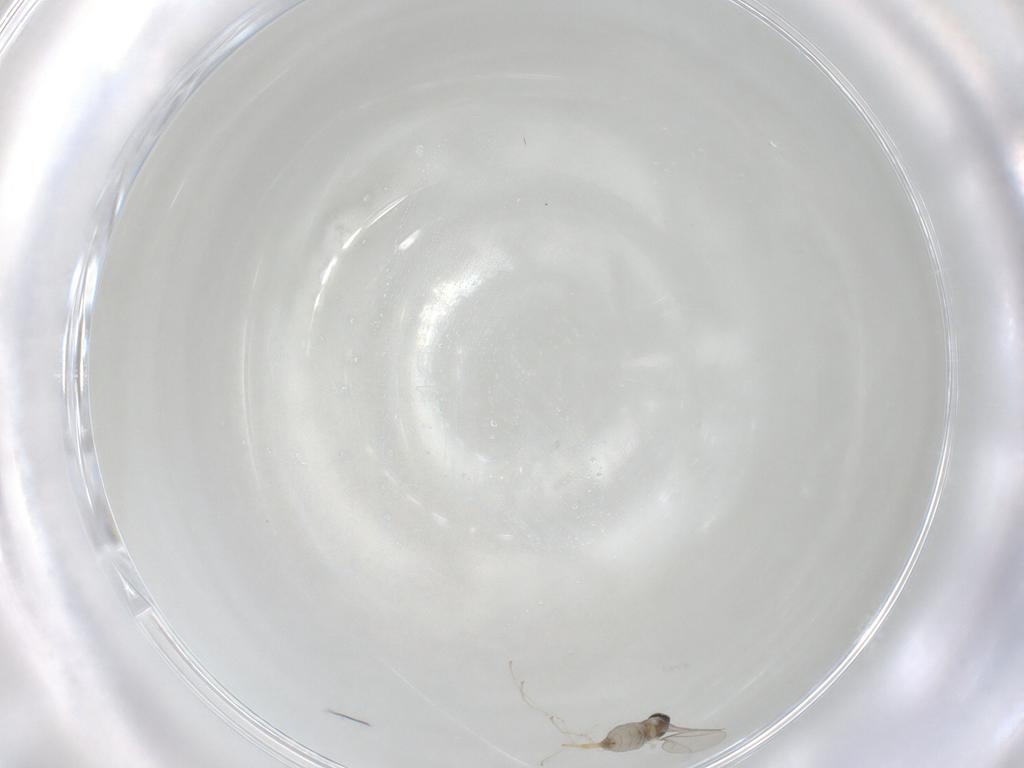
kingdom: Animalia
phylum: Arthropoda
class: Insecta
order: Diptera
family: Cecidomyiidae
